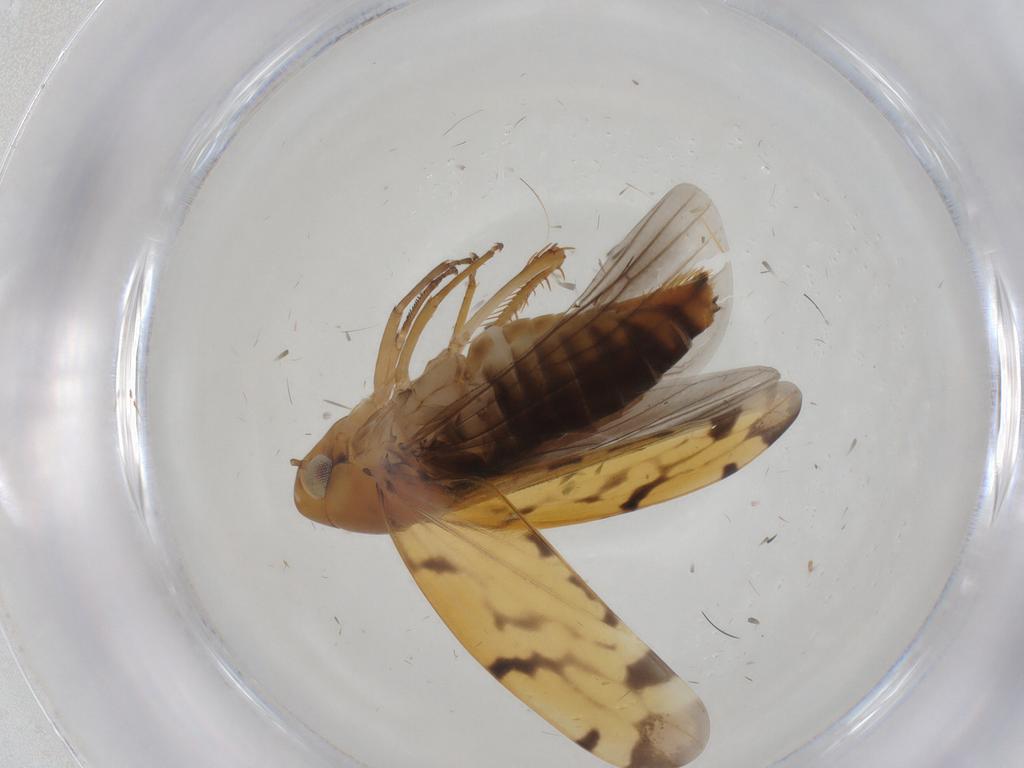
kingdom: Animalia
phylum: Arthropoda
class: Insecta
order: Hemiptera
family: Cicadellidae
